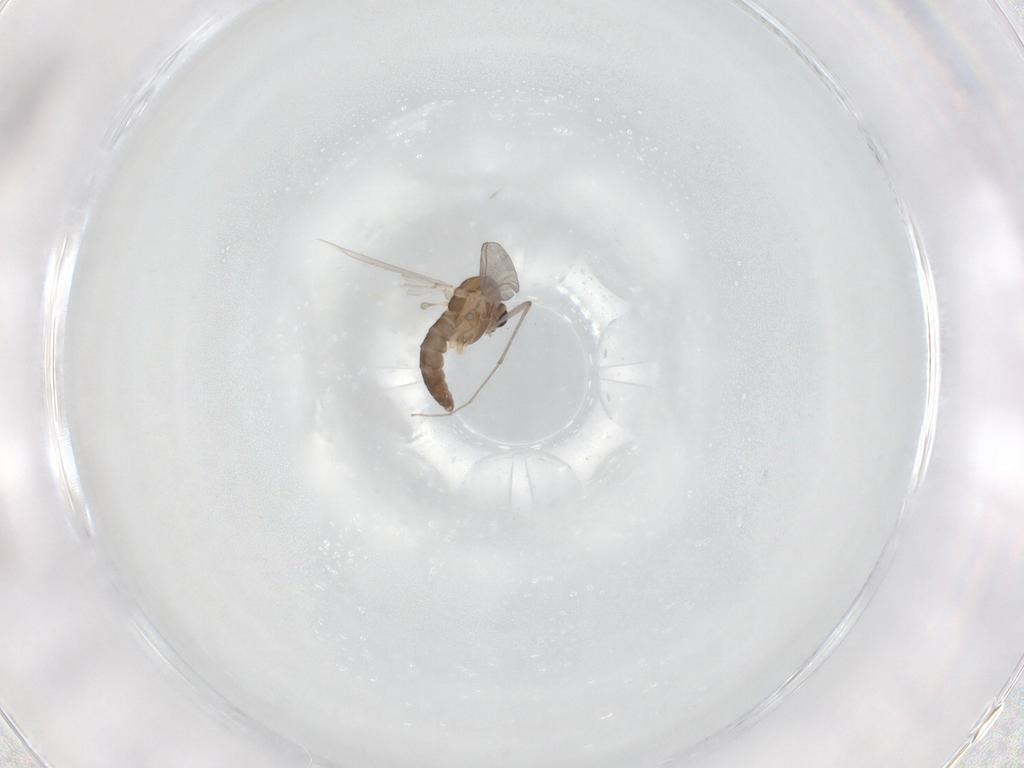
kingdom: Animalia
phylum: Arthropoda
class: Insecta
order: Diptera
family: Chironomidae
